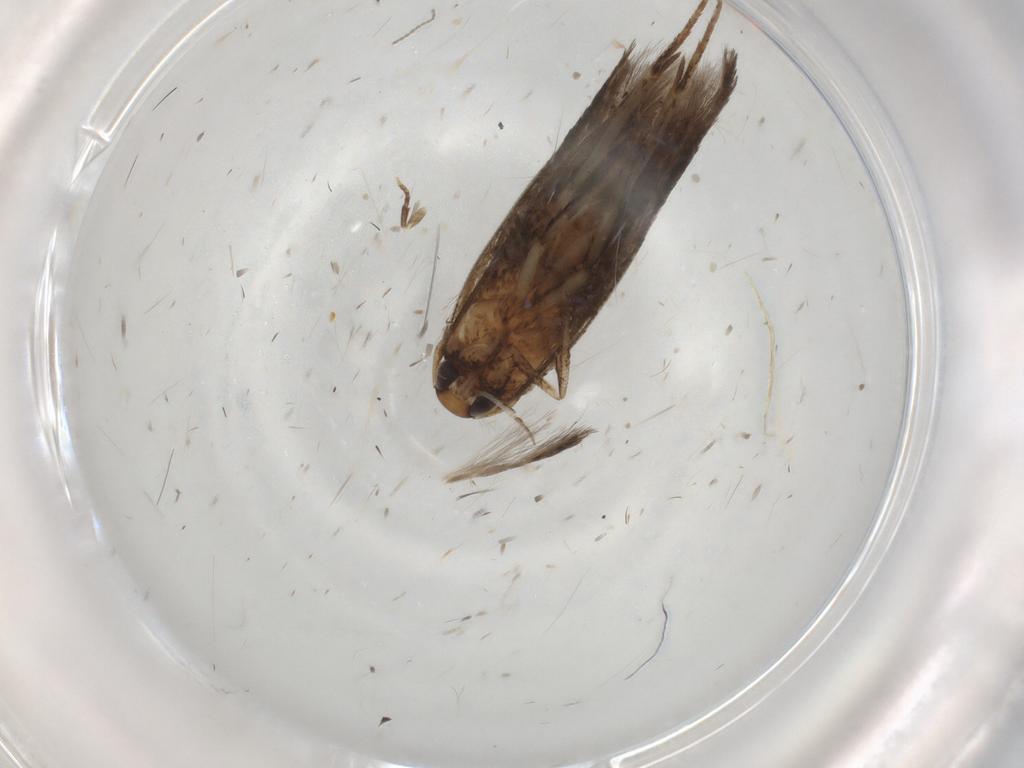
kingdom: Animalia
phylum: Arthropoda
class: Insecta
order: Lepidoptera
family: Cosmopterigidae
